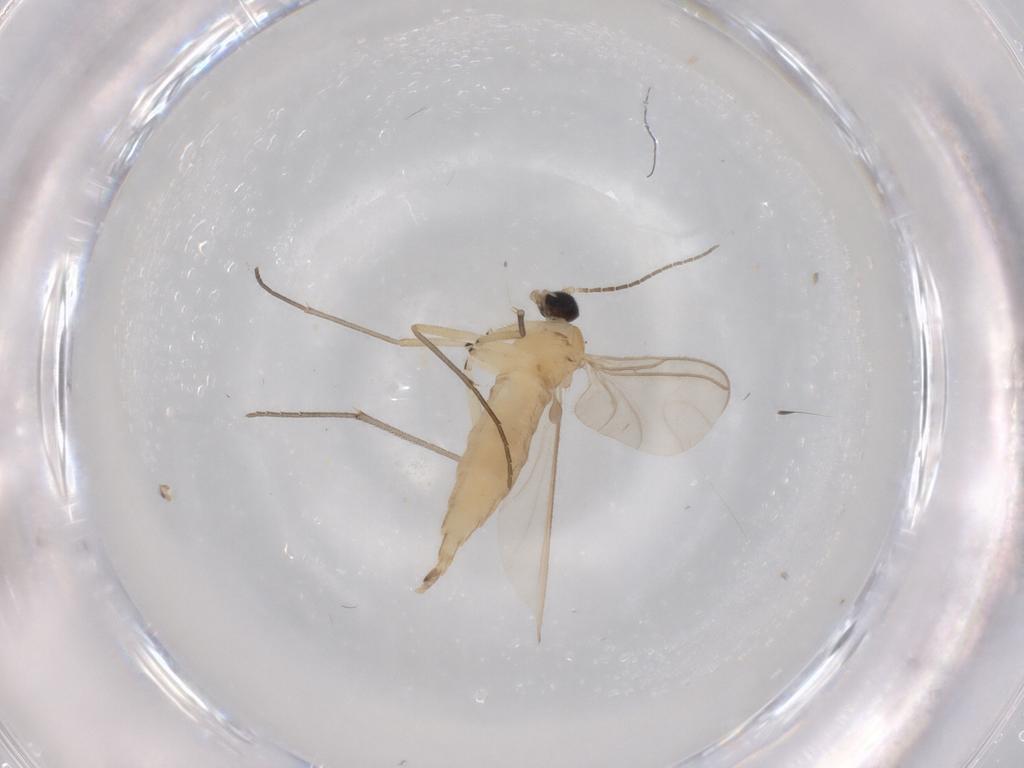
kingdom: Animalia
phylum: Arthropoda
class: Insecta
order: Diptera
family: Sciaridae
